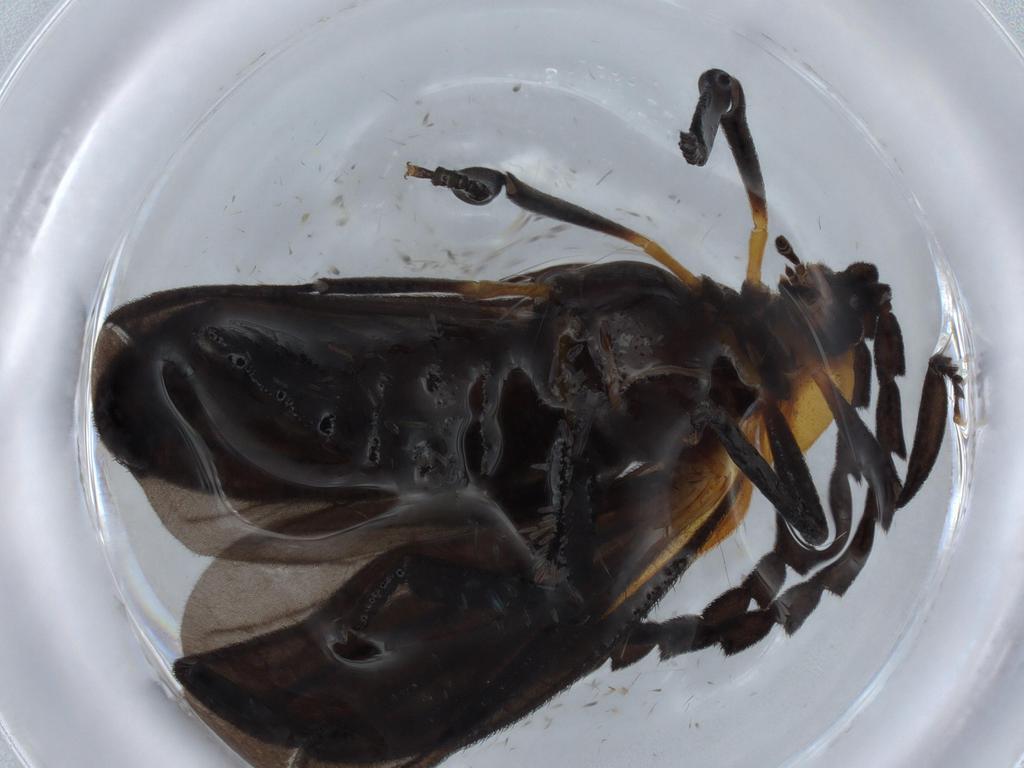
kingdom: Animalia
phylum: Arthropoda
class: Insecta
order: Coleoptera
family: Lycidae
